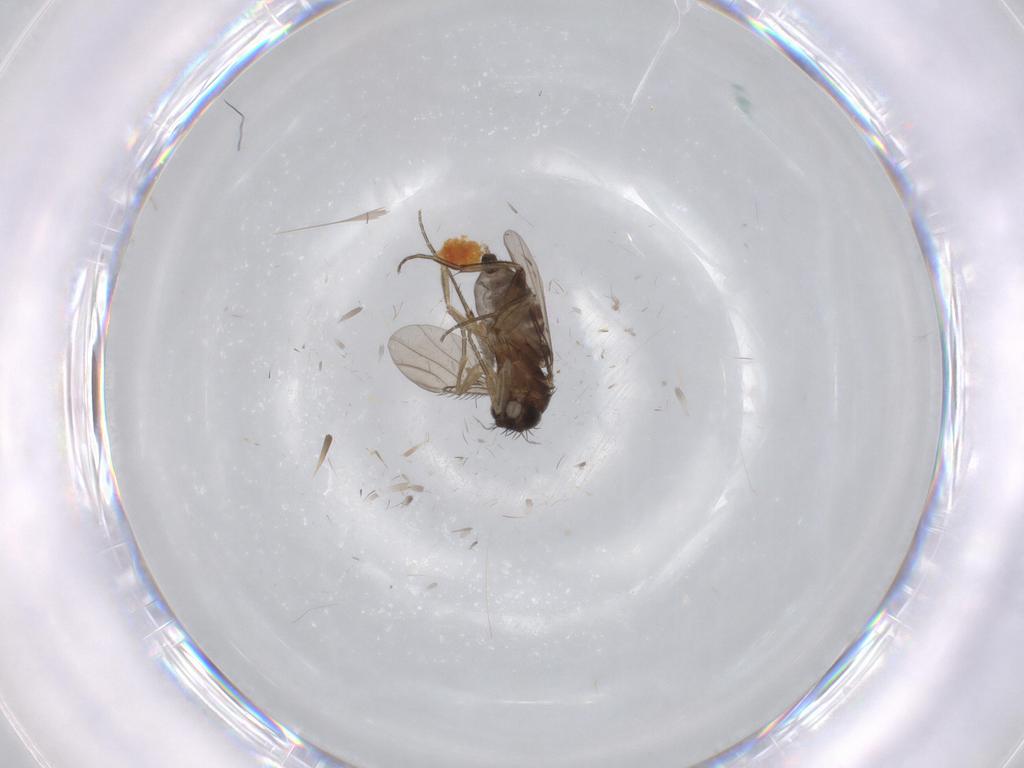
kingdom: Animalia
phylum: Arthropoda
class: Insecta
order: Diptera
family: Phoridae
